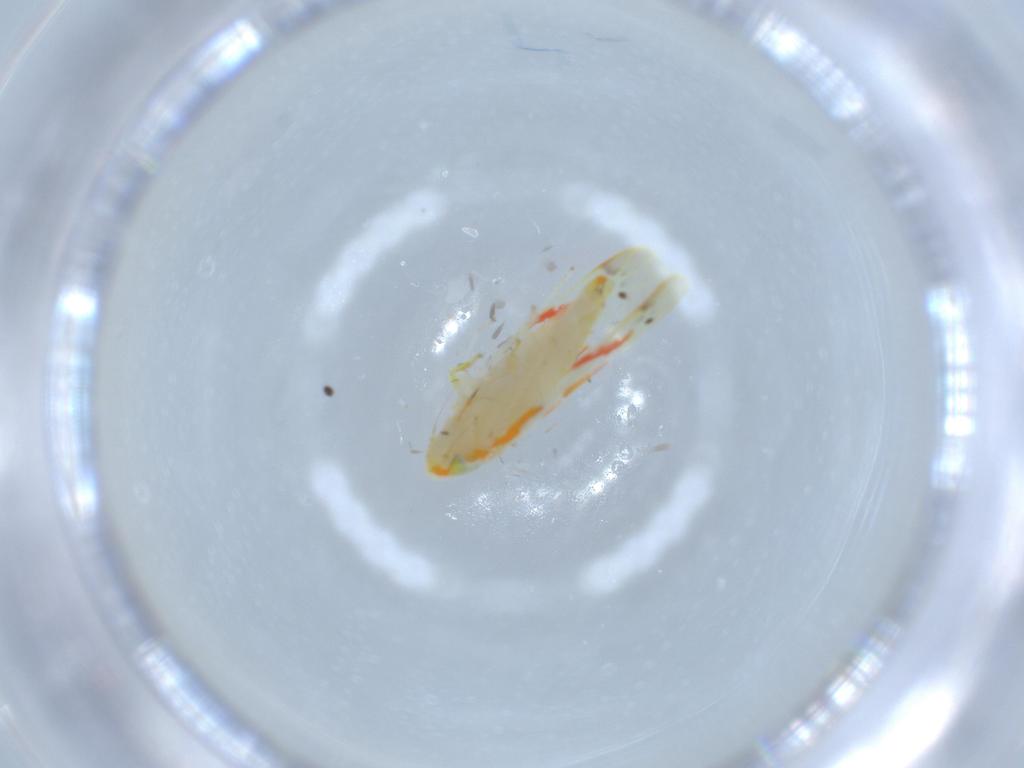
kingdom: Animalia
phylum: Arthropoda
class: Insecta
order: Hemiptera
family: Cicadellidae
